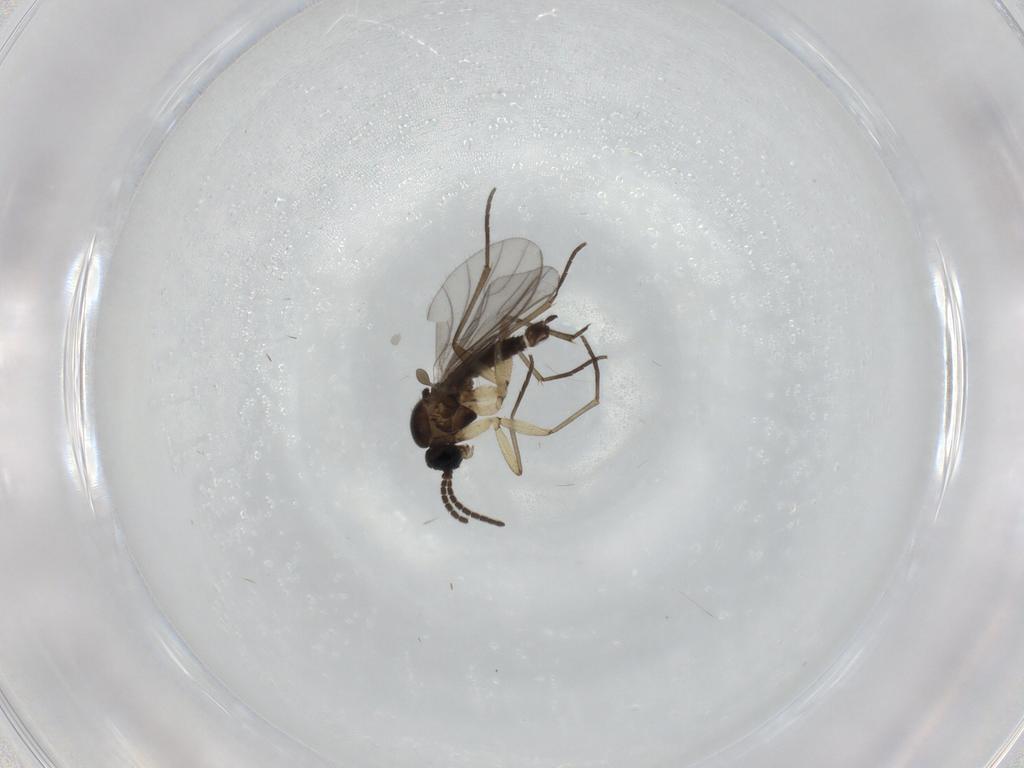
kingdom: Animalia
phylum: Arthropoda
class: Insecta
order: Diptera
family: Sciaridae
